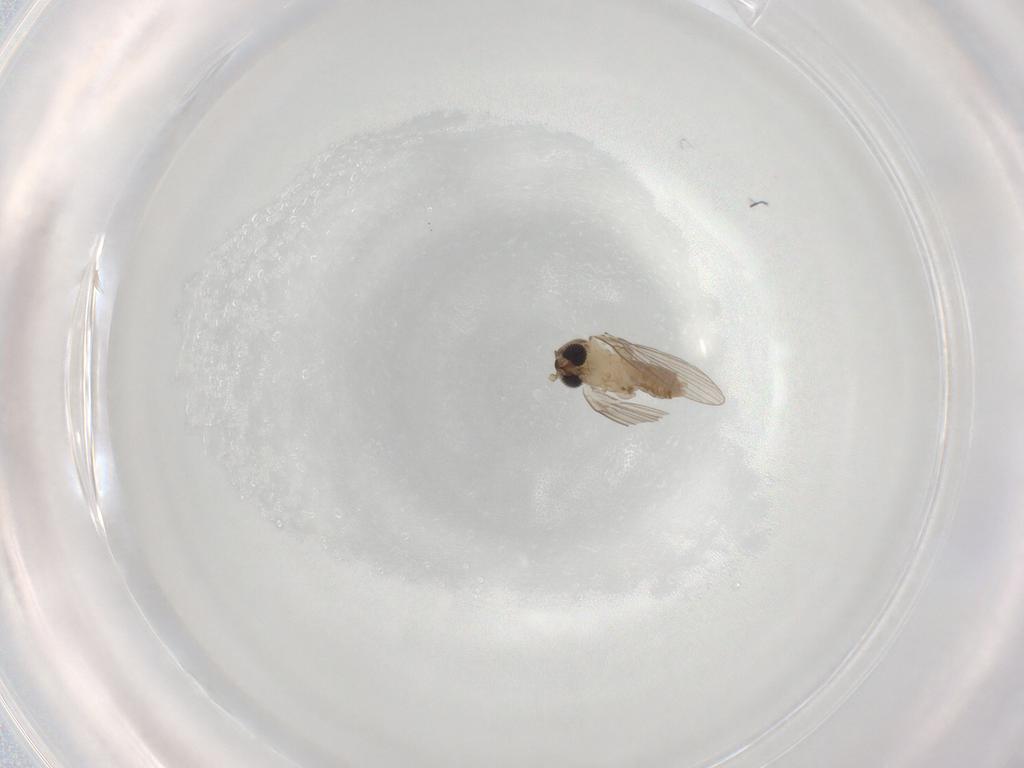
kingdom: Animalia
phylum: Arthropoda
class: Insecta
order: Diptera
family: Psychodidae
